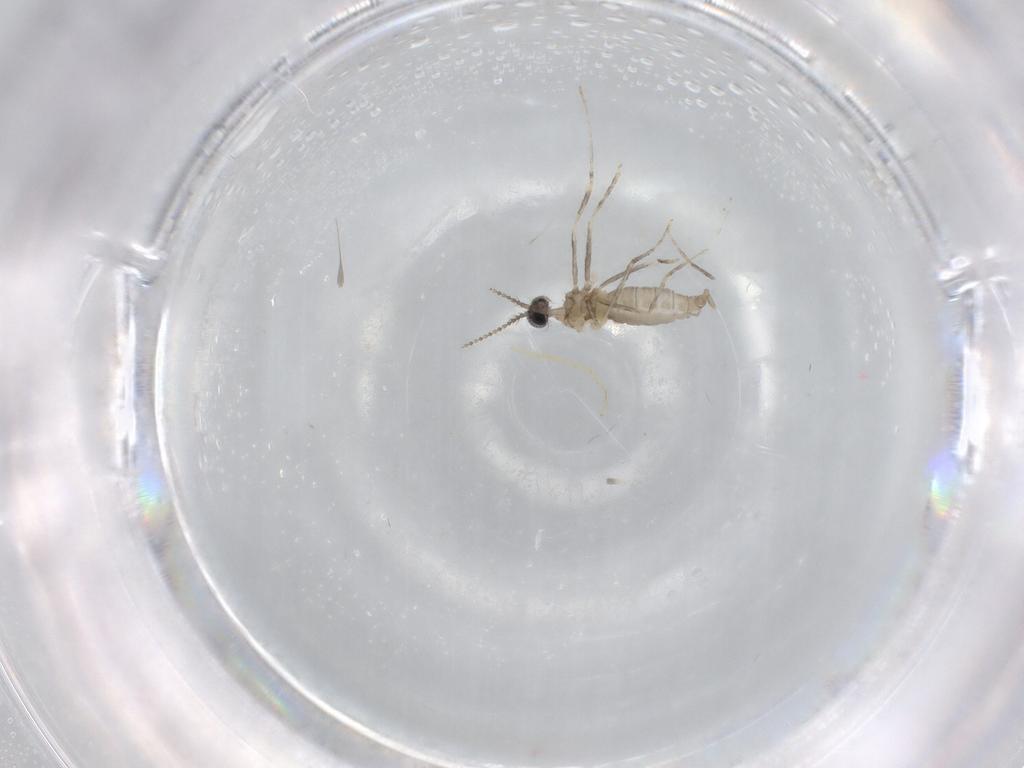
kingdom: Animalia
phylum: Arthropoda
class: Insecta
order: Diptera
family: Cecidomyiidae
